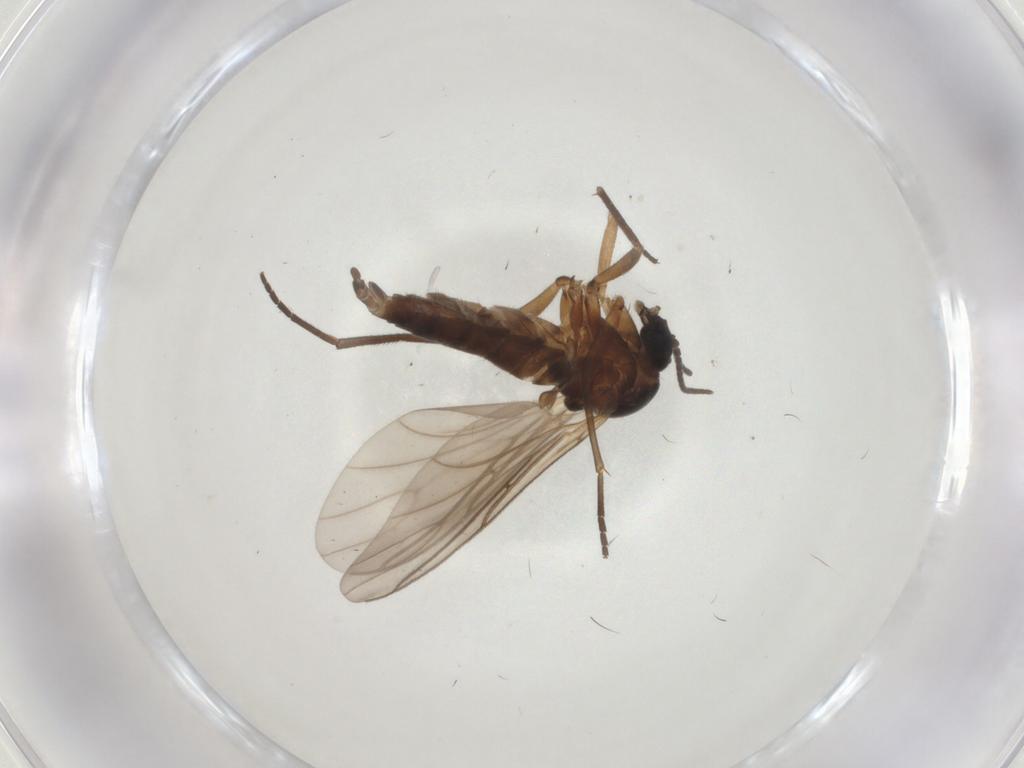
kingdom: Animalia
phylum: Arthropoda
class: Insecta
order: Diptera
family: Sciaridae
